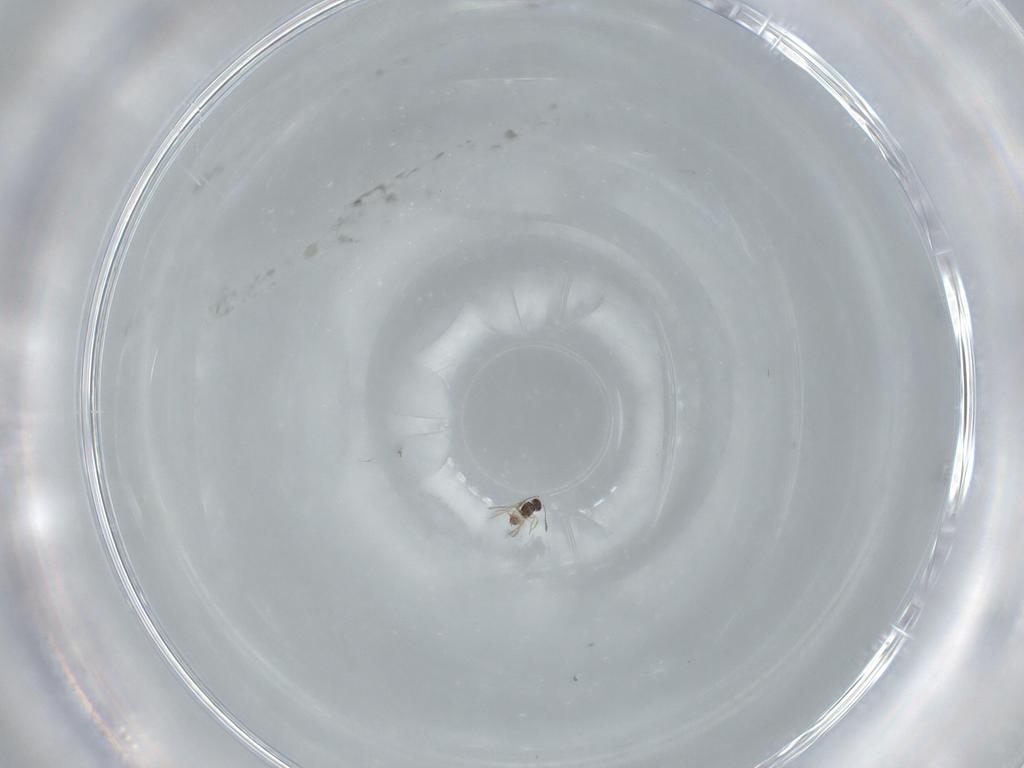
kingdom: Animalia
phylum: Arthropoda
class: Insecta
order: Hymenoptera
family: Mymaridae
